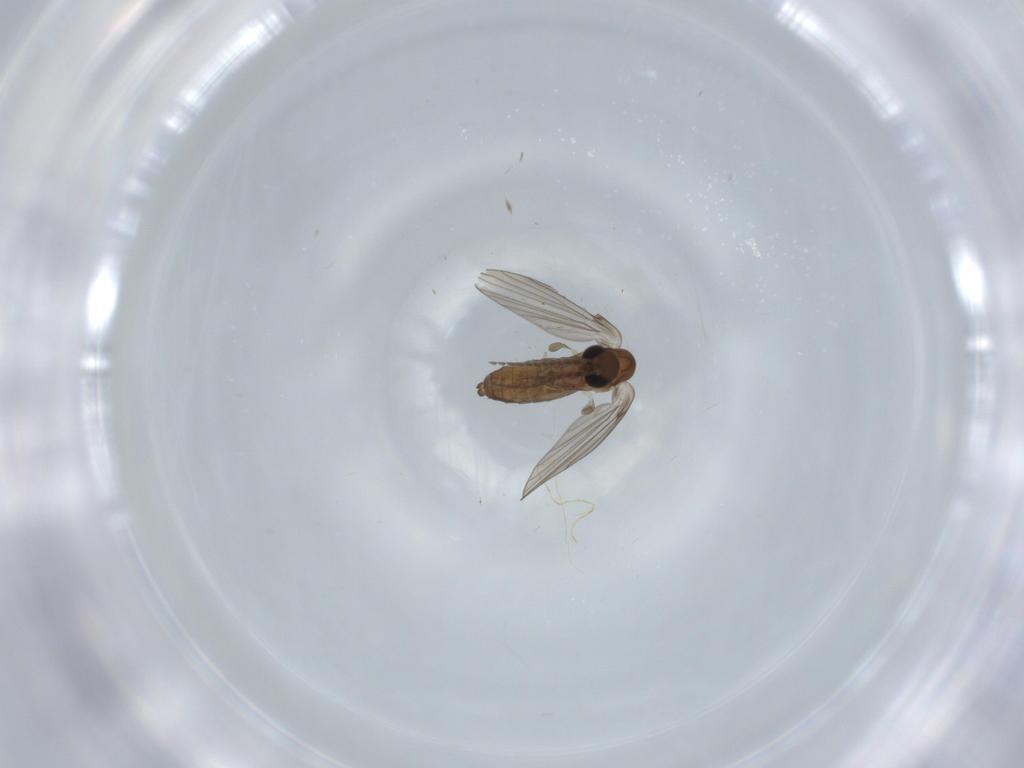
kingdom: Animalia
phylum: Arthropoda
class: Insecta
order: Diptera
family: Psychodidae
